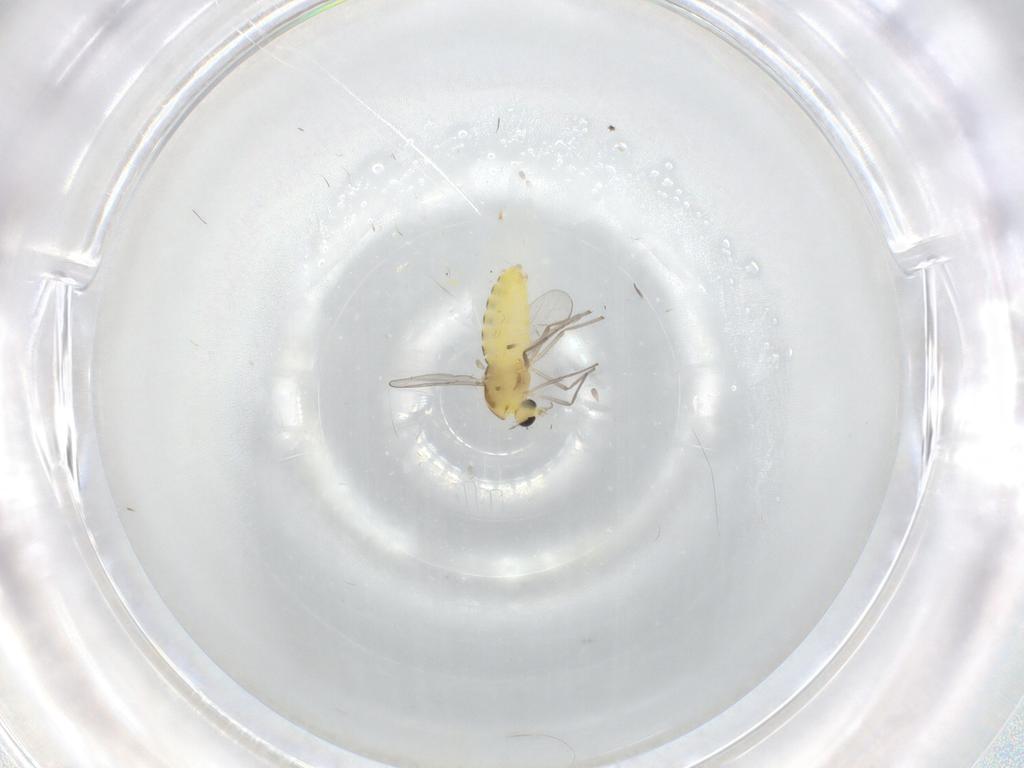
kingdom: Animalia
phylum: Arthropoda
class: Insecta
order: Diptera
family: Chironomidae
